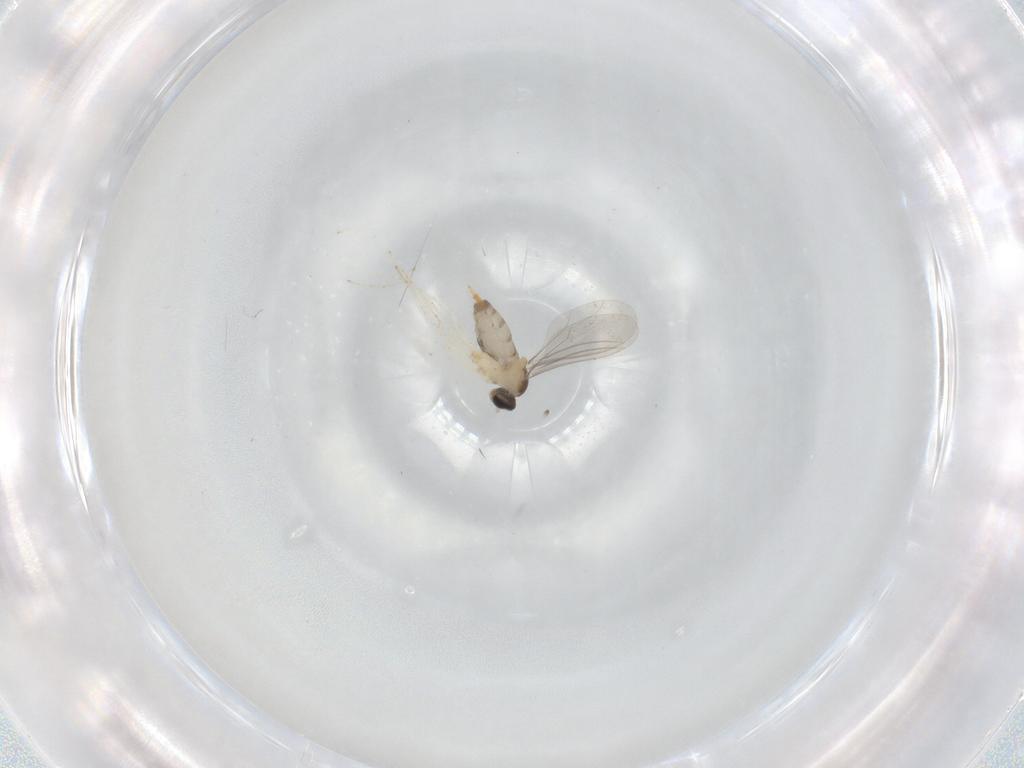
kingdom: Animalia
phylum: Arthropoda
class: Insecta
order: Diptera
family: Cecidomyiidae
